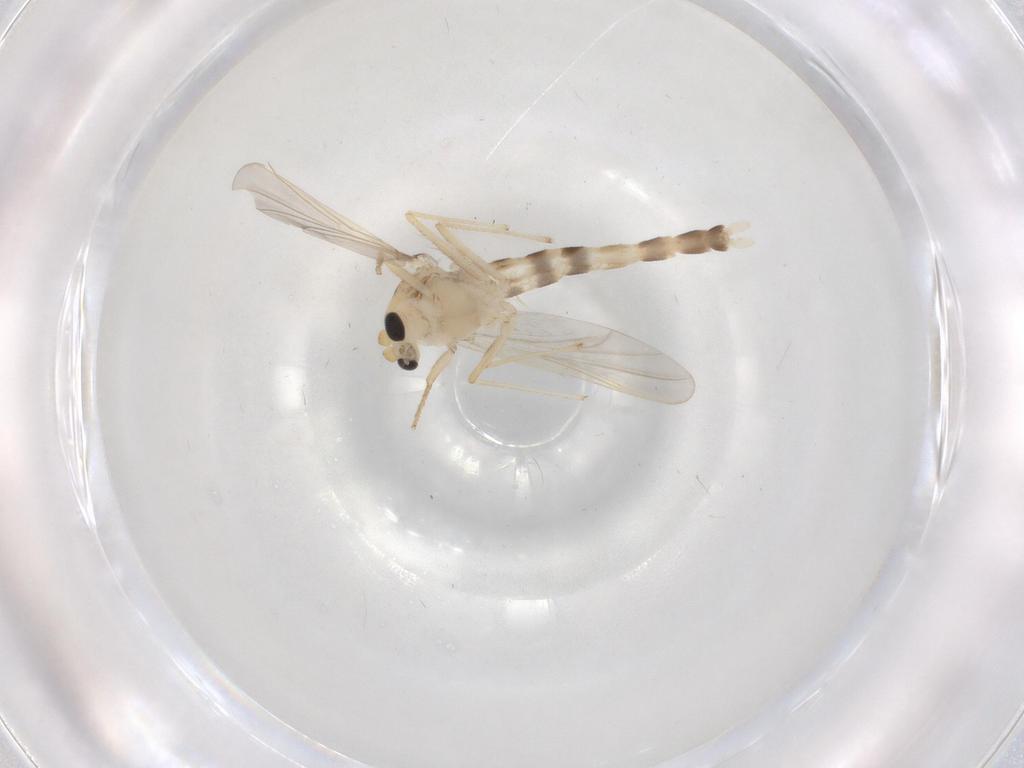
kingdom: Animalia
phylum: Arthropoda
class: Insecta
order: Diptera
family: Chironomidae
